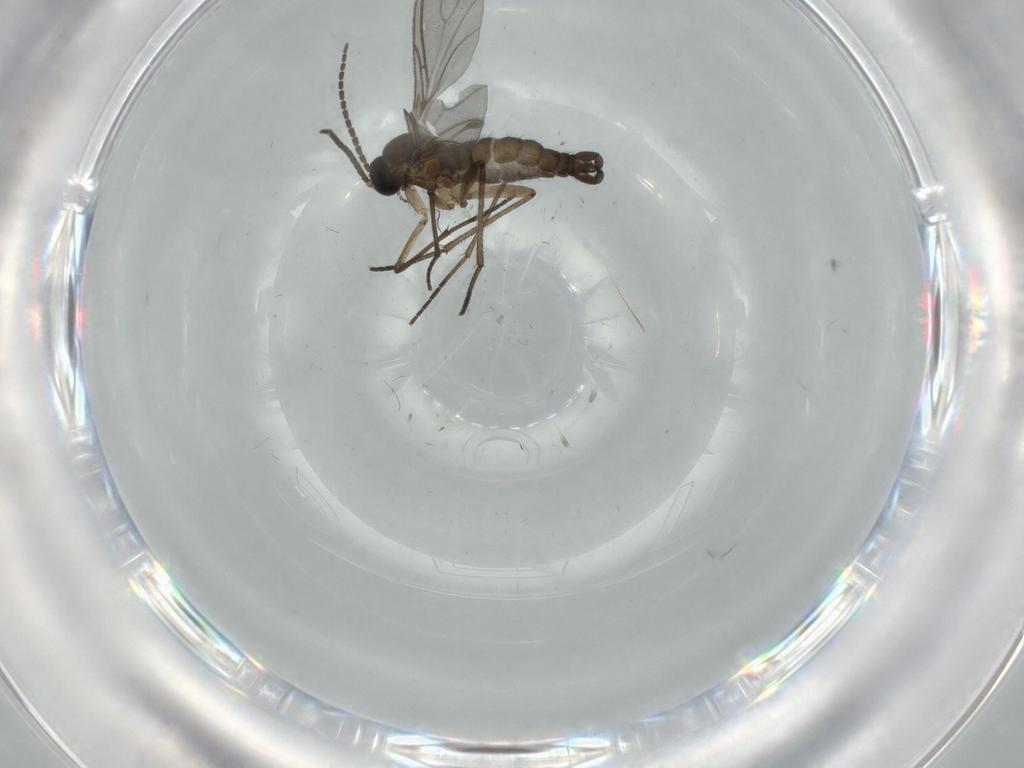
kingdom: Animalia
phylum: Arthropoda
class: Insecta
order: Diptera
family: Sciaridae
